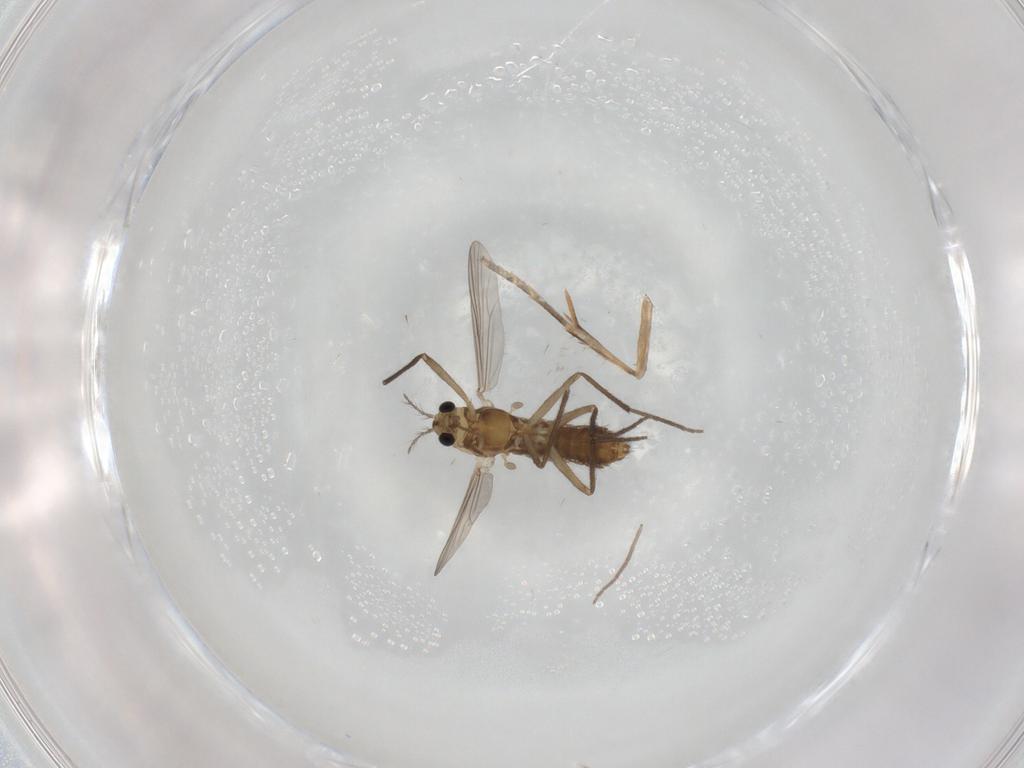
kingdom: Animalia
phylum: Arthropoda
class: Insecta
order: Diptera
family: Chironomidae
